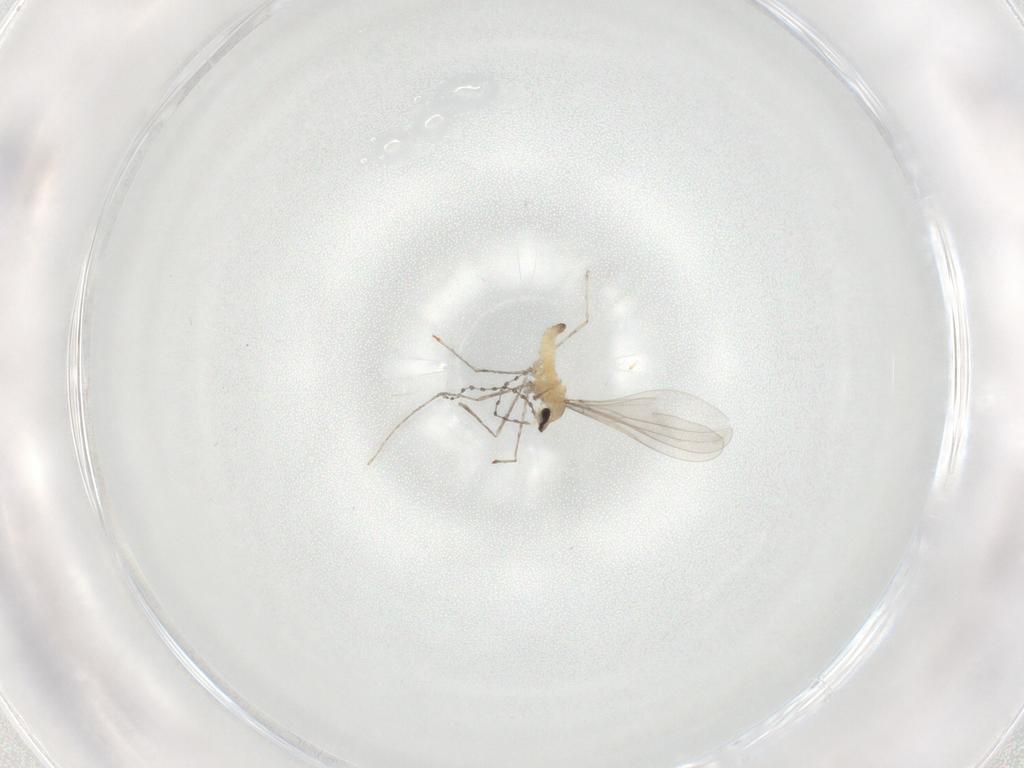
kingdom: Animalia
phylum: Arthropoda
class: Insecta
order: Diptera
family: Cecidomyiidae
